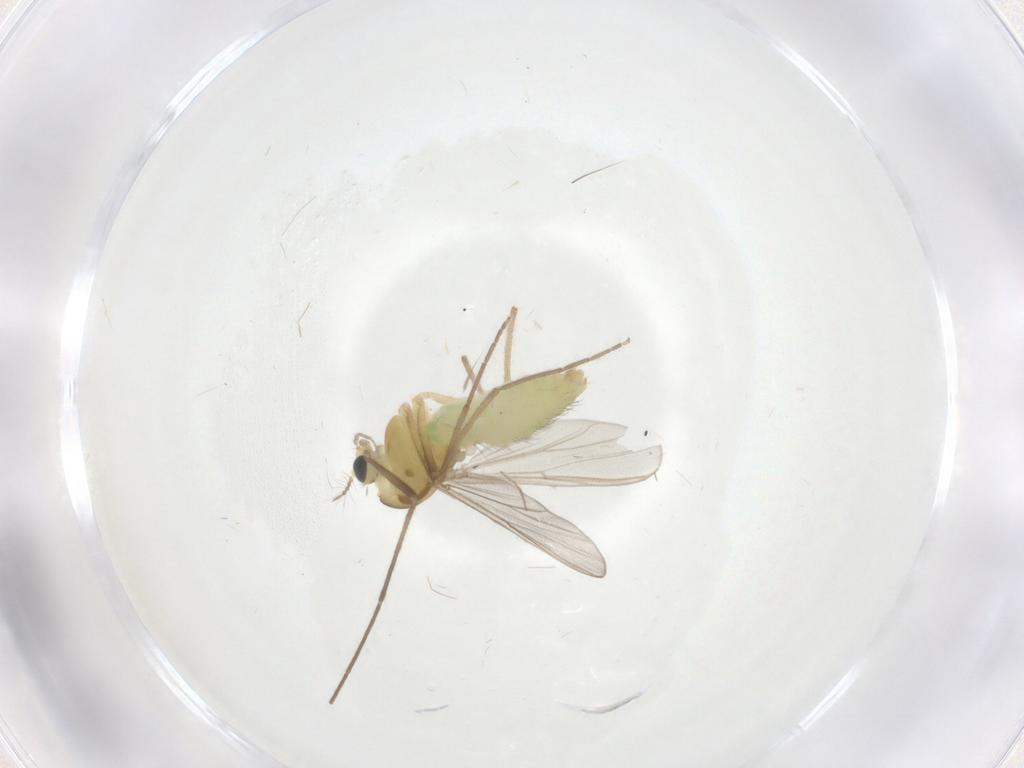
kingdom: Animalia
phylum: Arthropoda
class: Insecta
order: Diptera
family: Chironomidae
